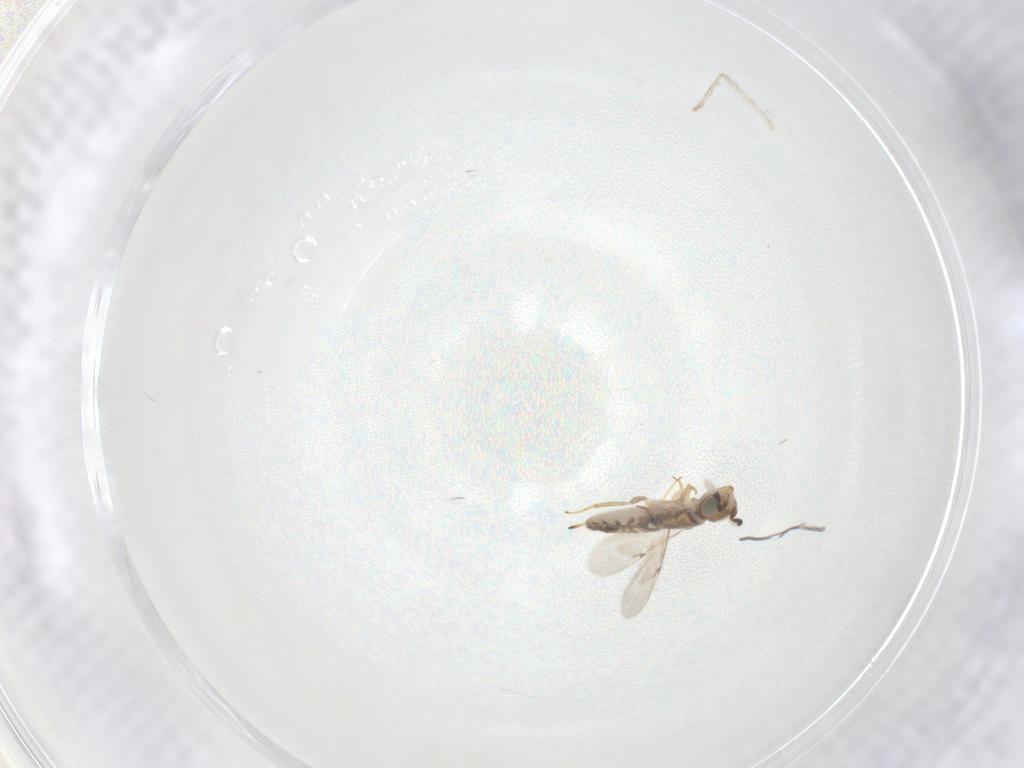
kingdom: Animalia
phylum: Arthropoda
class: Insecta
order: Hymenoptera
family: Encyrtidae
